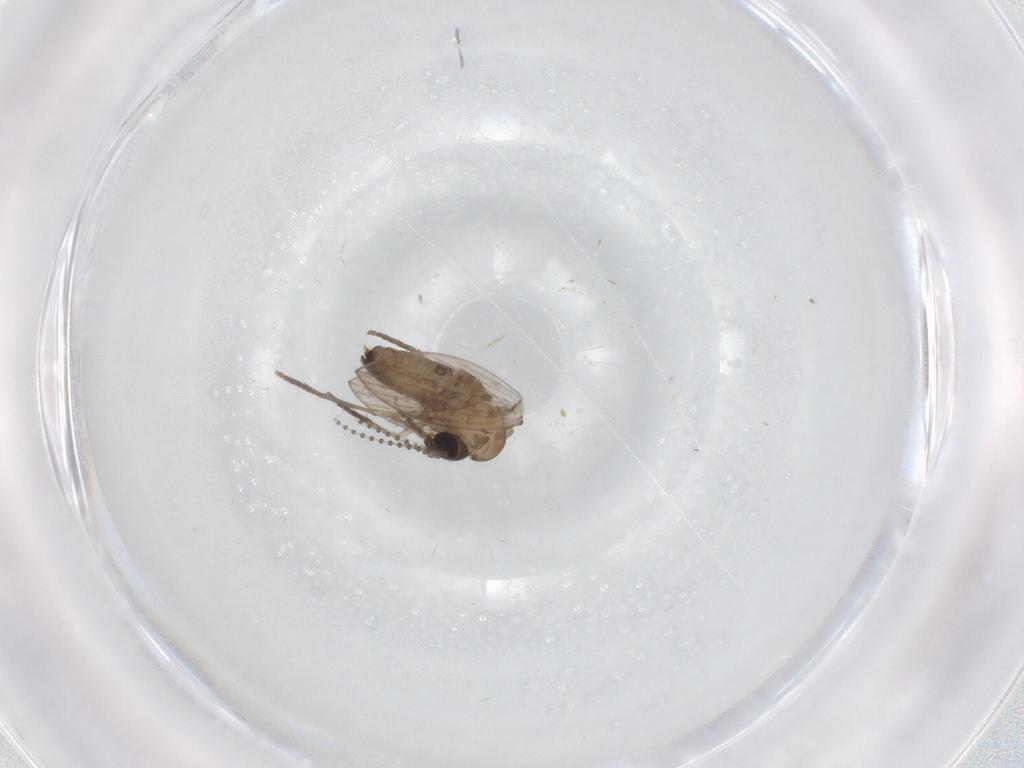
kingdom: Animalia
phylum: Arthropoda
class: Insecta
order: Diptera
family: Psychodidae
